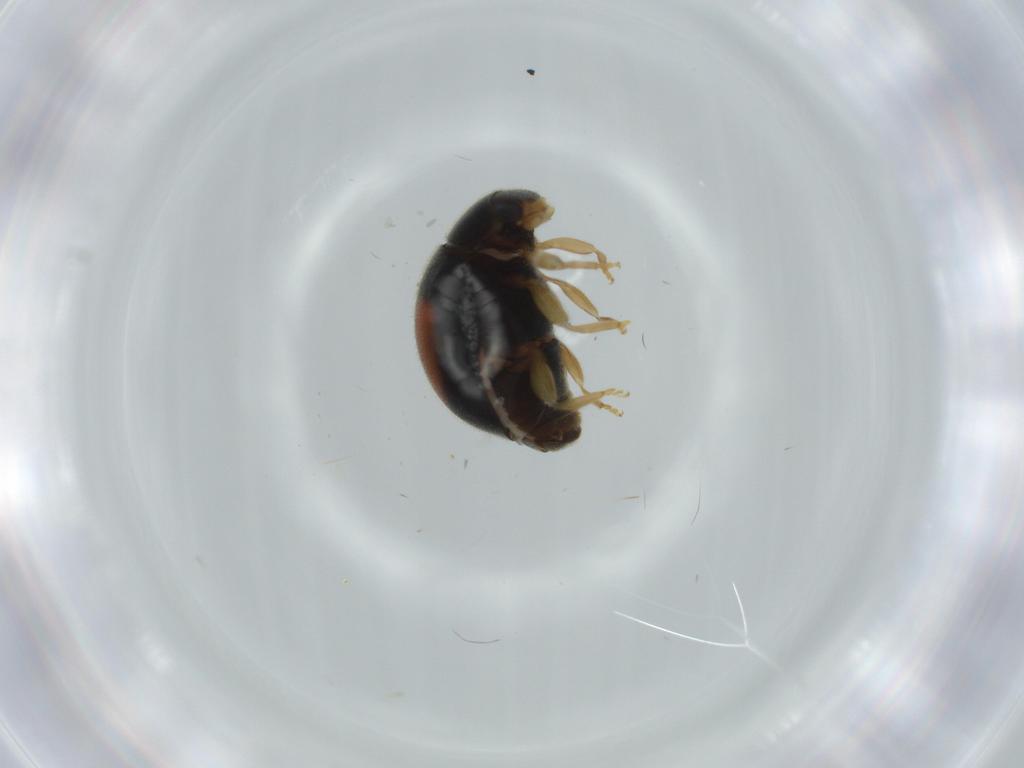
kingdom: Animalia
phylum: Arthropoda
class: Insecta
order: Coleoptera
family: Coccinellidae
